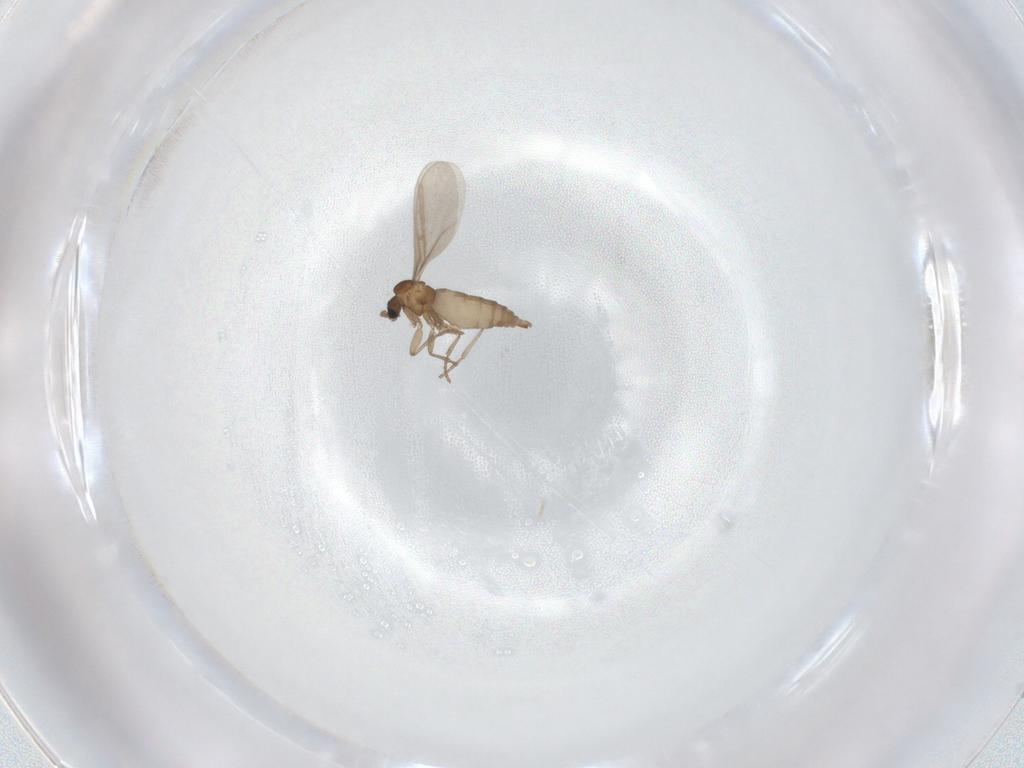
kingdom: Animalia
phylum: Arthropoda
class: Insecta
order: Diptera
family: Sciaridae
